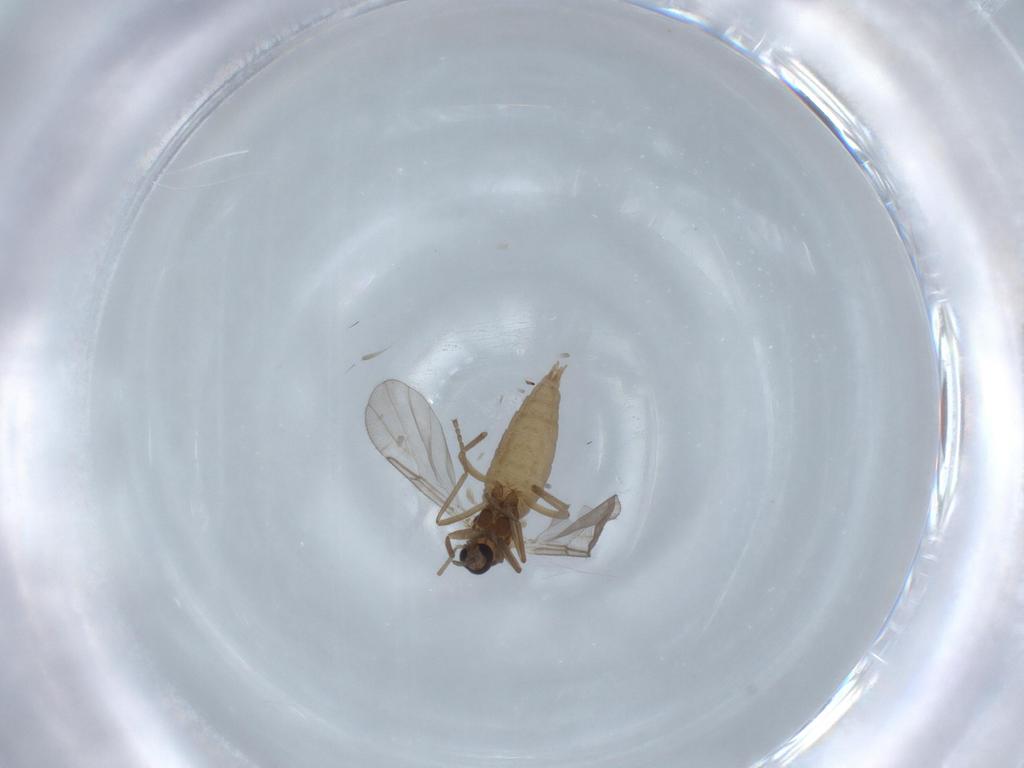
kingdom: Animalia
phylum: Arthropoda
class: Insecta
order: Diptera
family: Cecidomyiidae
